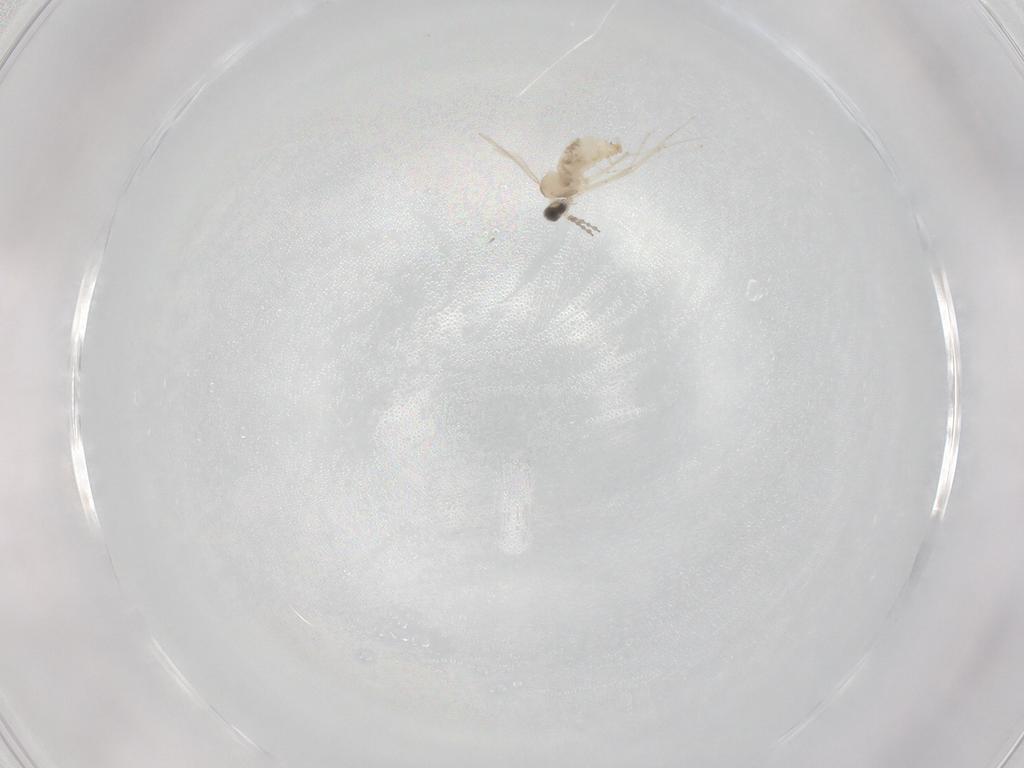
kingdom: Animalia
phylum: Arthropoda
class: Insecta
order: Diptera
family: Cecidomyiidae
